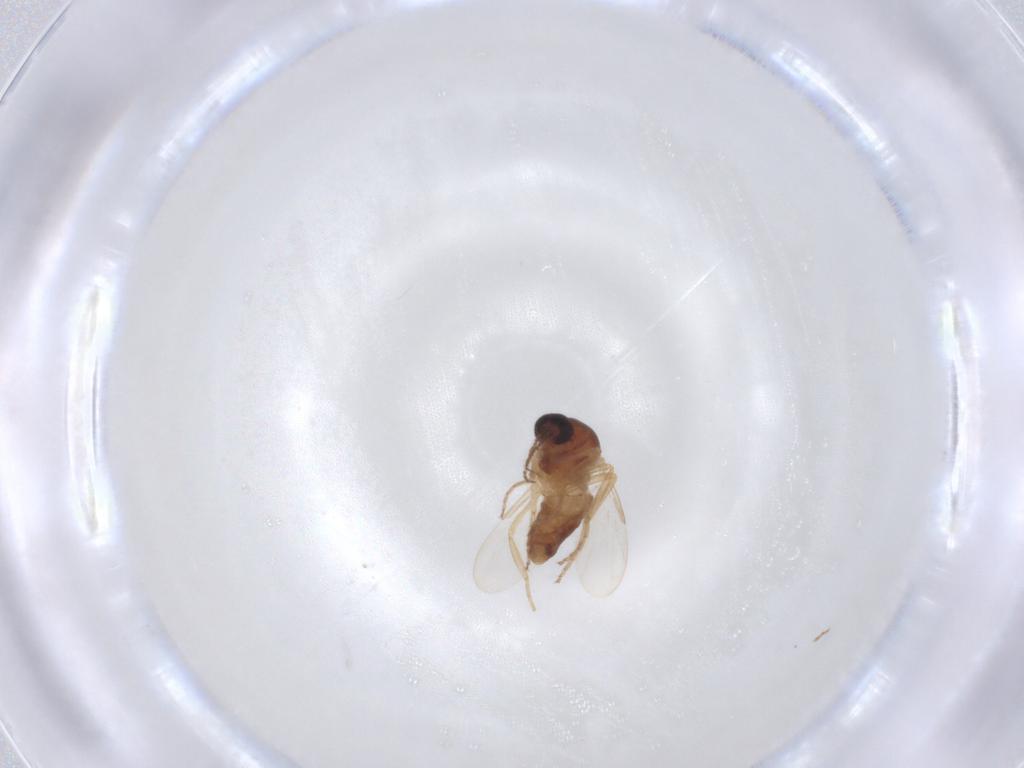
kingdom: Animalia
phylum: Arthropoda
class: Insecta
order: Diptera
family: Ceratopogonidae
